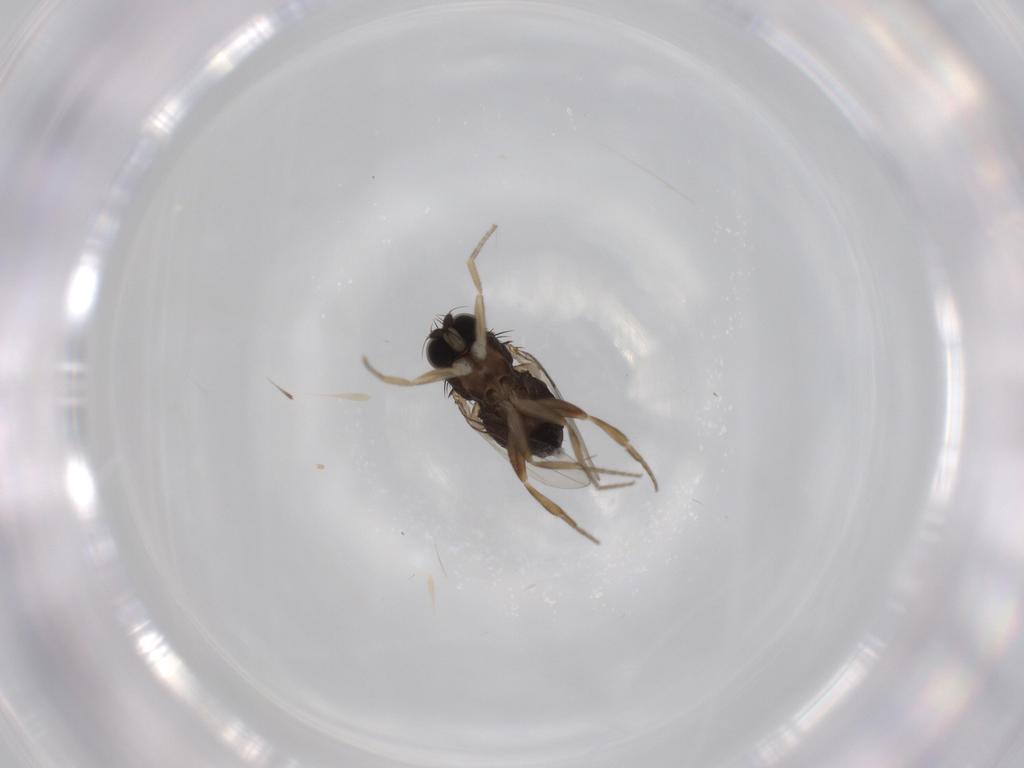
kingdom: Animalia
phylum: Arthropoda
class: Insecta
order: Diptera
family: Phoridae
